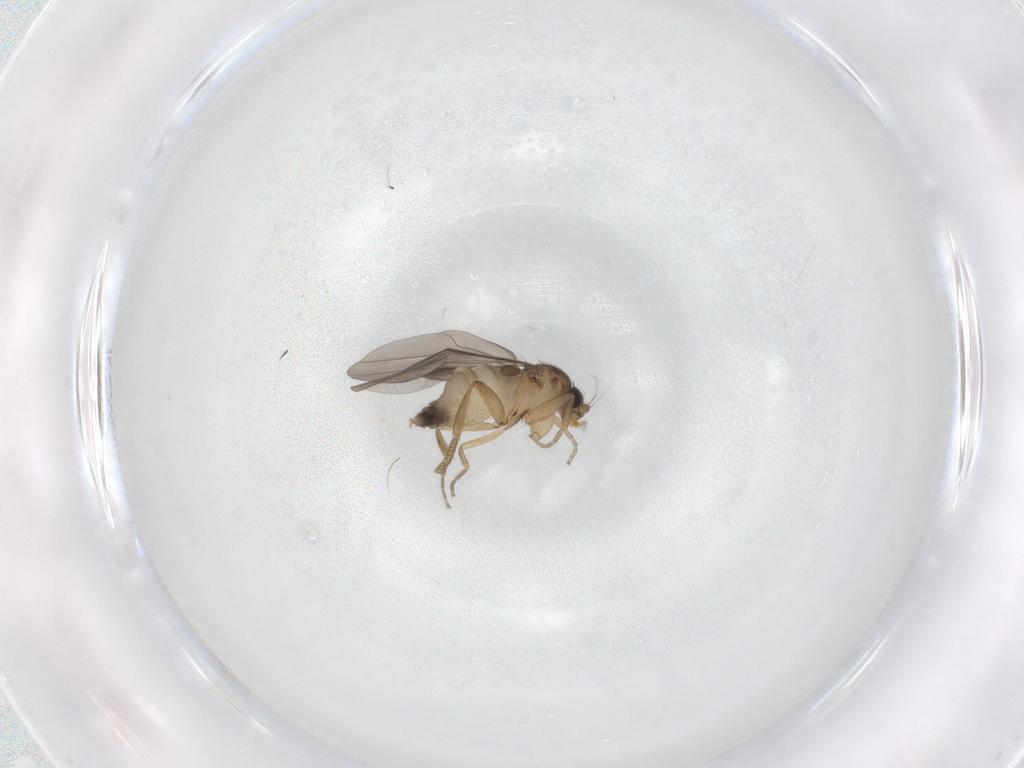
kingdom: Animalia
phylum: Arthropoda
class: Insecta
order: Diptera
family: Phoridae
